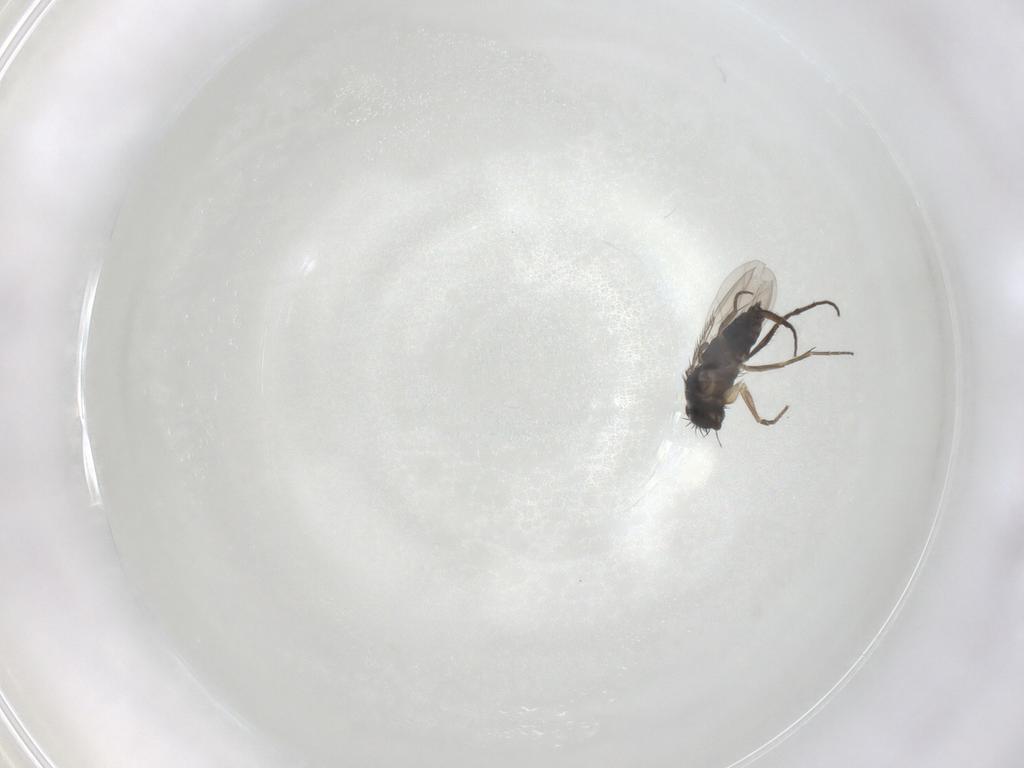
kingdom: Animalia
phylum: Arthropoda
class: Insecta
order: Diptera
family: Phoridae
